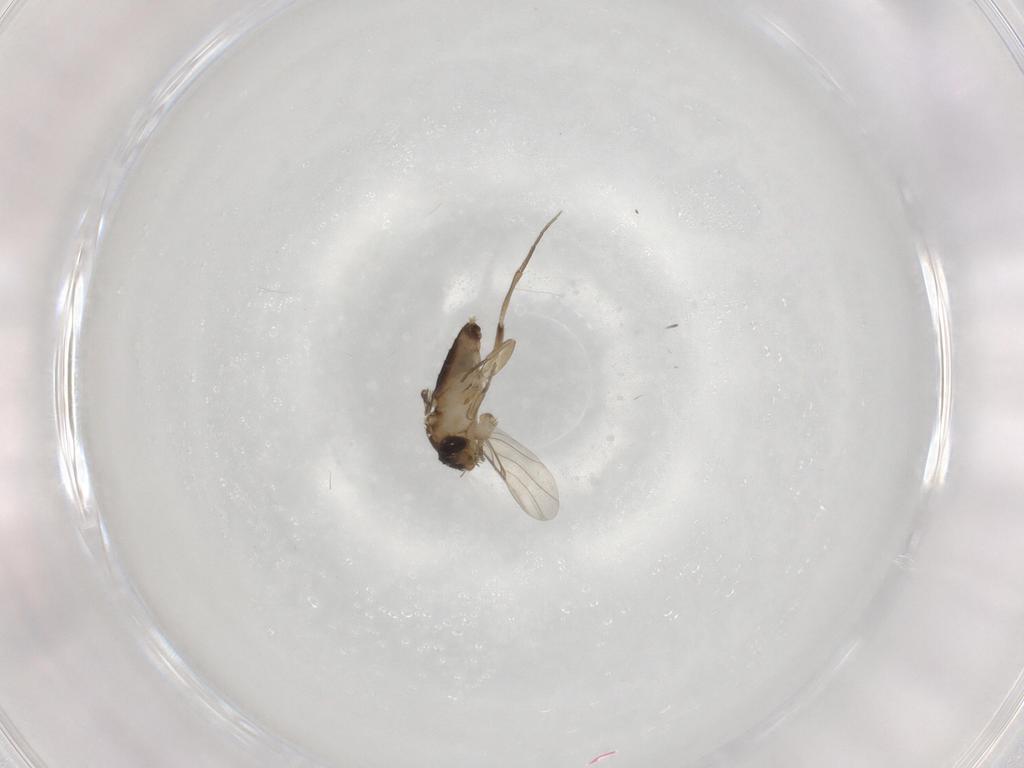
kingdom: Animalia
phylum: Arthropoda
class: Insecta
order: Diptera
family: Phoridae
